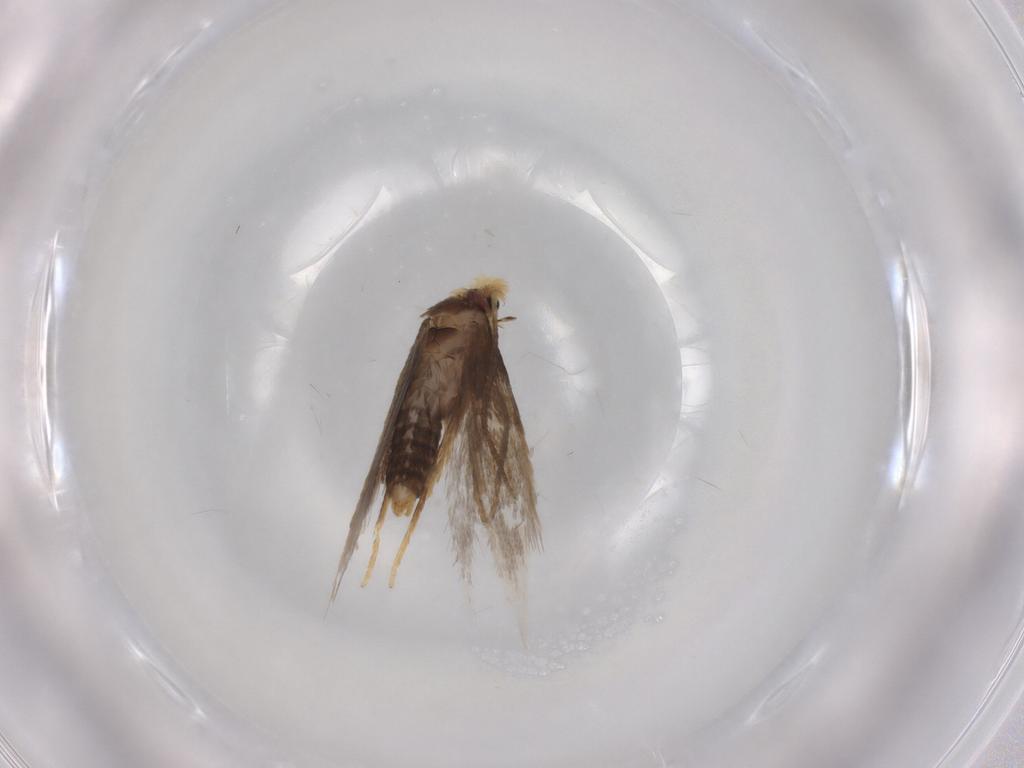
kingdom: Animalia
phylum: Arthropoda
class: Insecta
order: Lepidoptera
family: Nepticulidae
